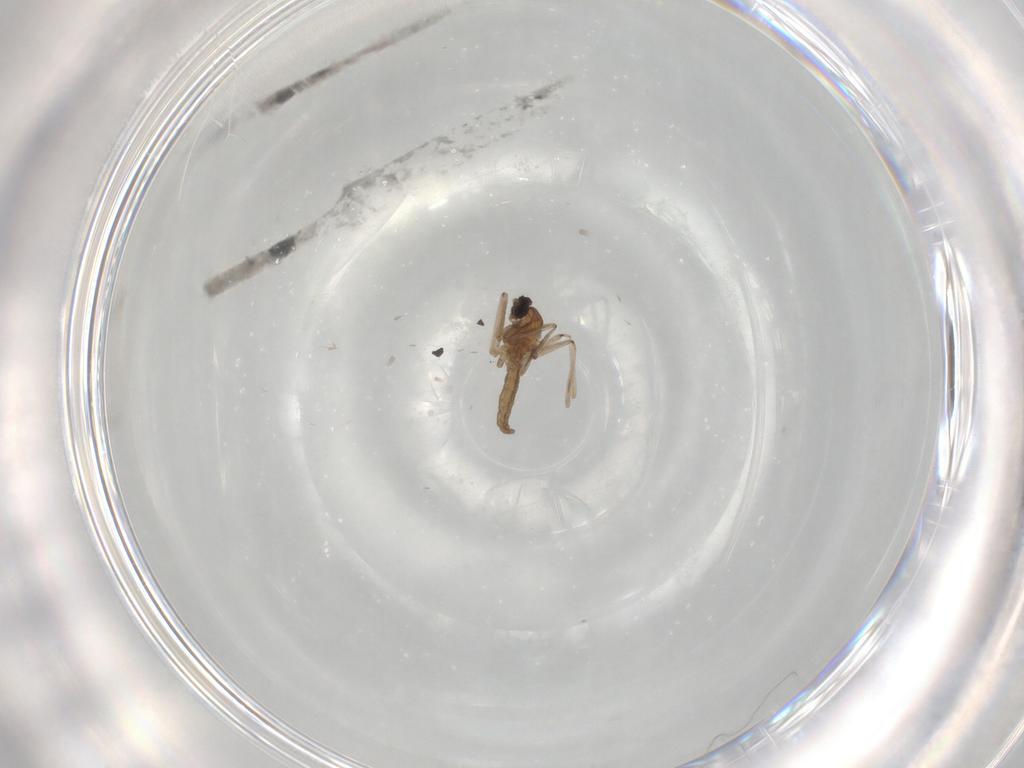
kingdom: Animalia
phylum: Arthropoda
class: Insecta
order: Diptera
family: Cecidomyiidae
